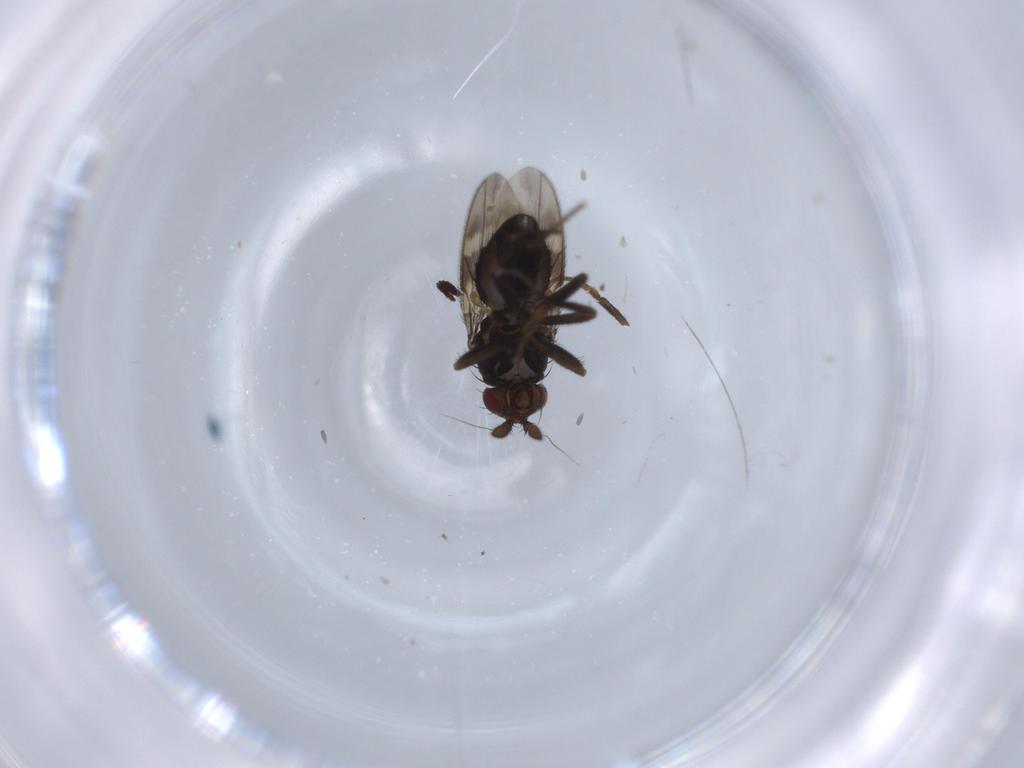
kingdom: Animalia
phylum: Arthropoda
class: Insecta
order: Diptera
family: Sphaeroceridae
